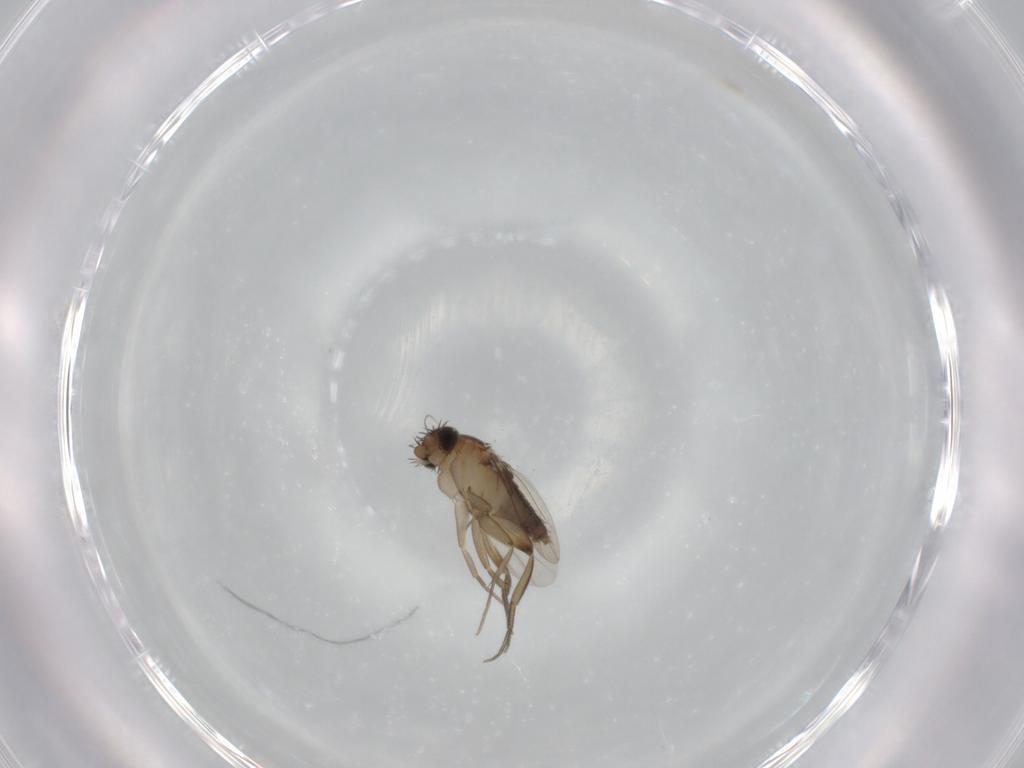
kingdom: Animalia
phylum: Arthropoda
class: Insecta
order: Diptera
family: Phoridae
